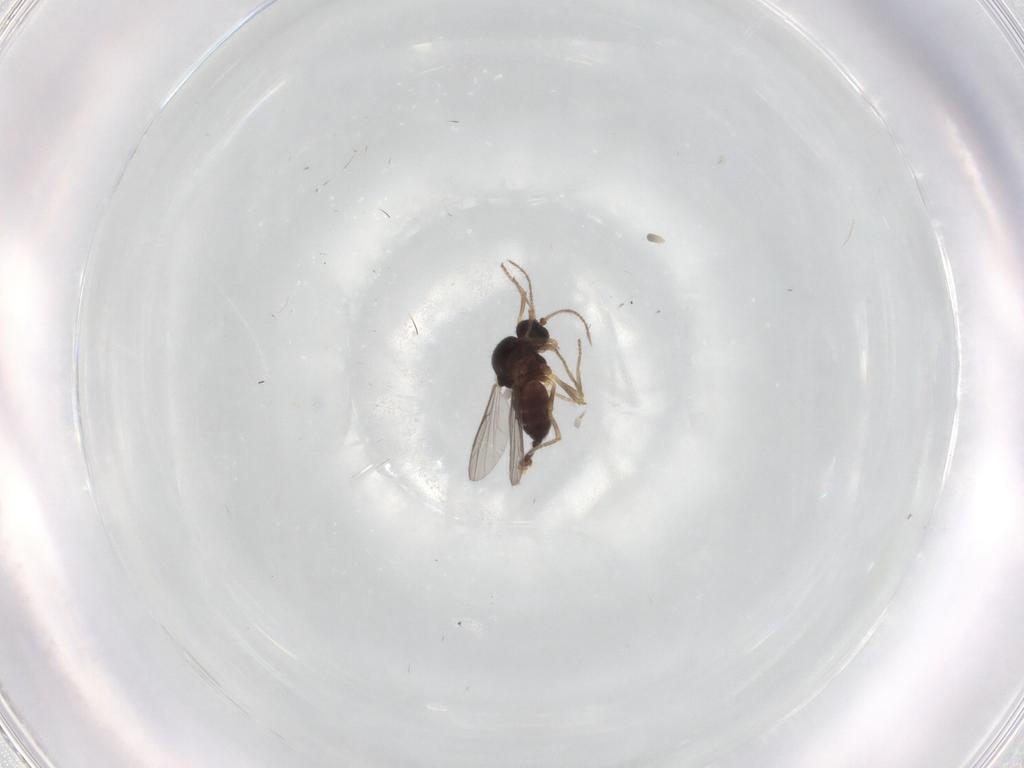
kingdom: Animalia
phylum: Arthropoda
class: Insecta
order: Diptera
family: Ceratopogonidae
